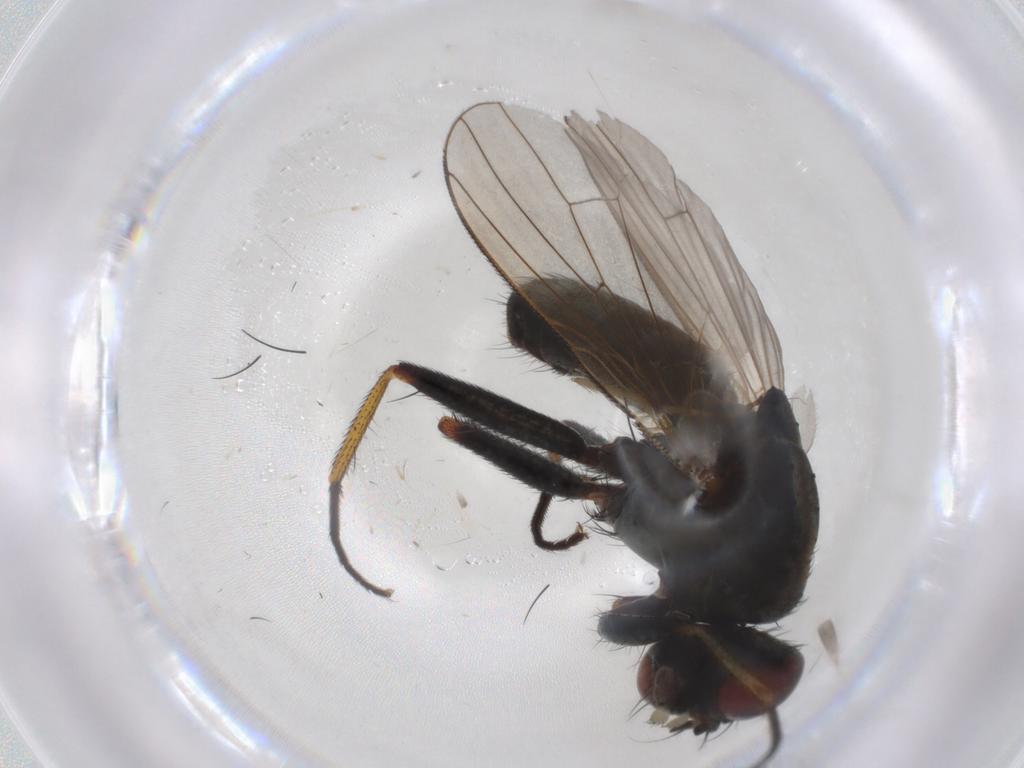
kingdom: Animalia
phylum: Arthropoda
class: Insecta
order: Diptera
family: Muscidae
